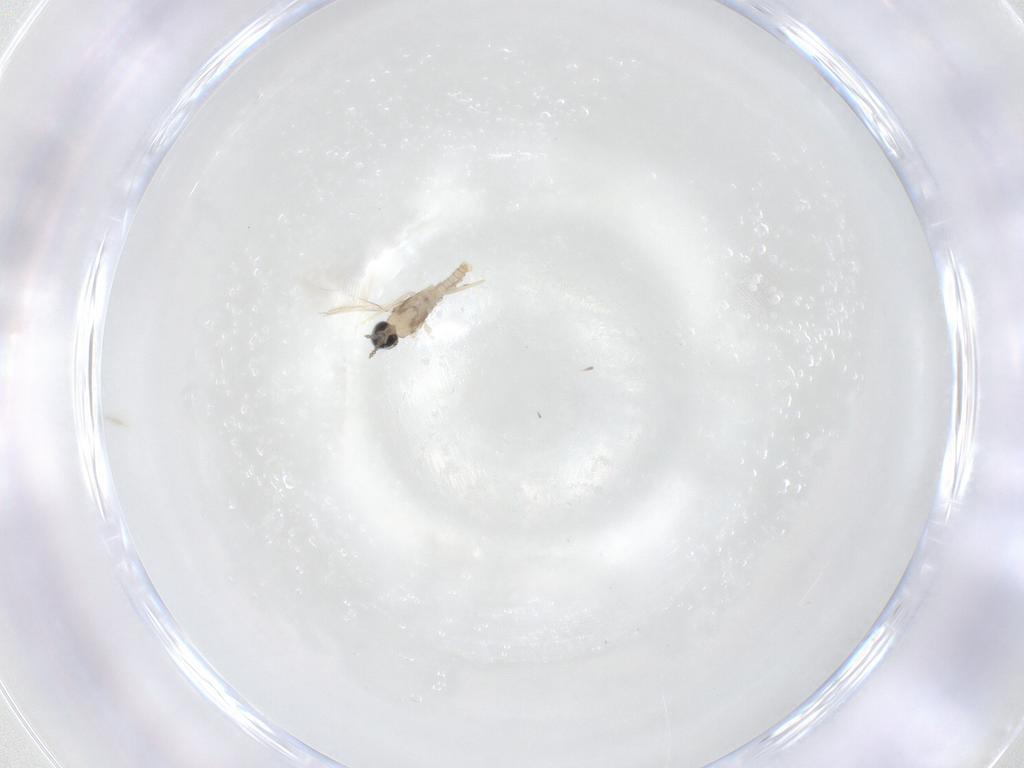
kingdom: Animalia
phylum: Arthropoda
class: Insecta
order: Diptera
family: Cecidomyiidae
